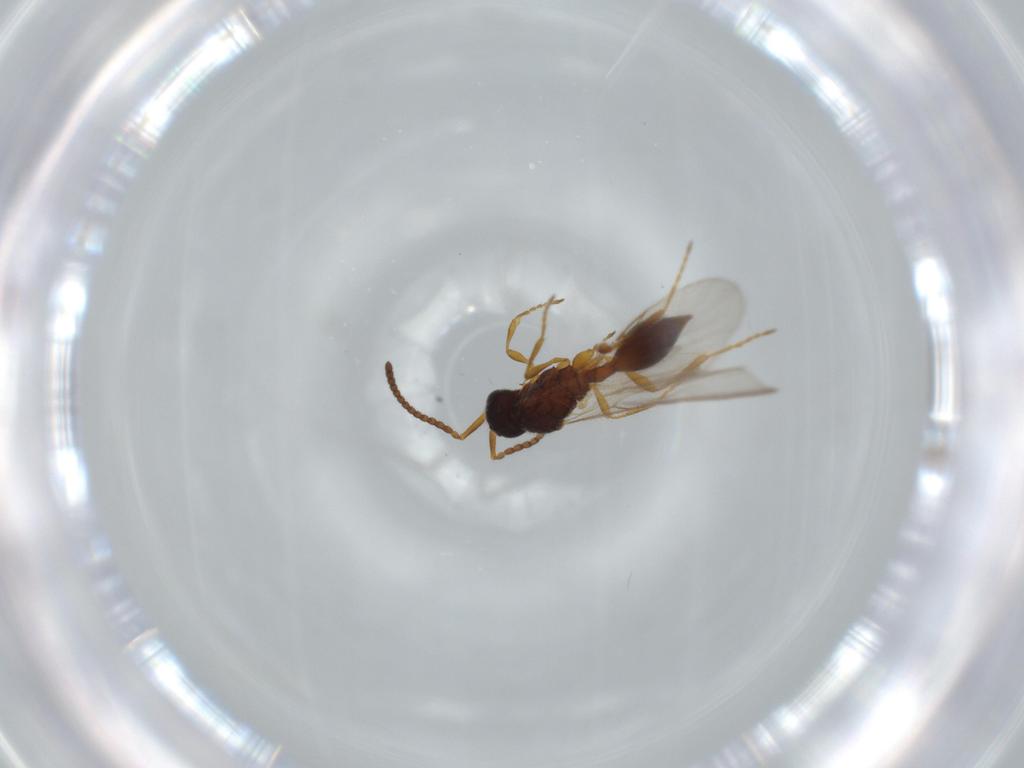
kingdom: Animalia
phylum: Arthropoda
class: Insecta
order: Hymenoptera
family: Diapriidae
